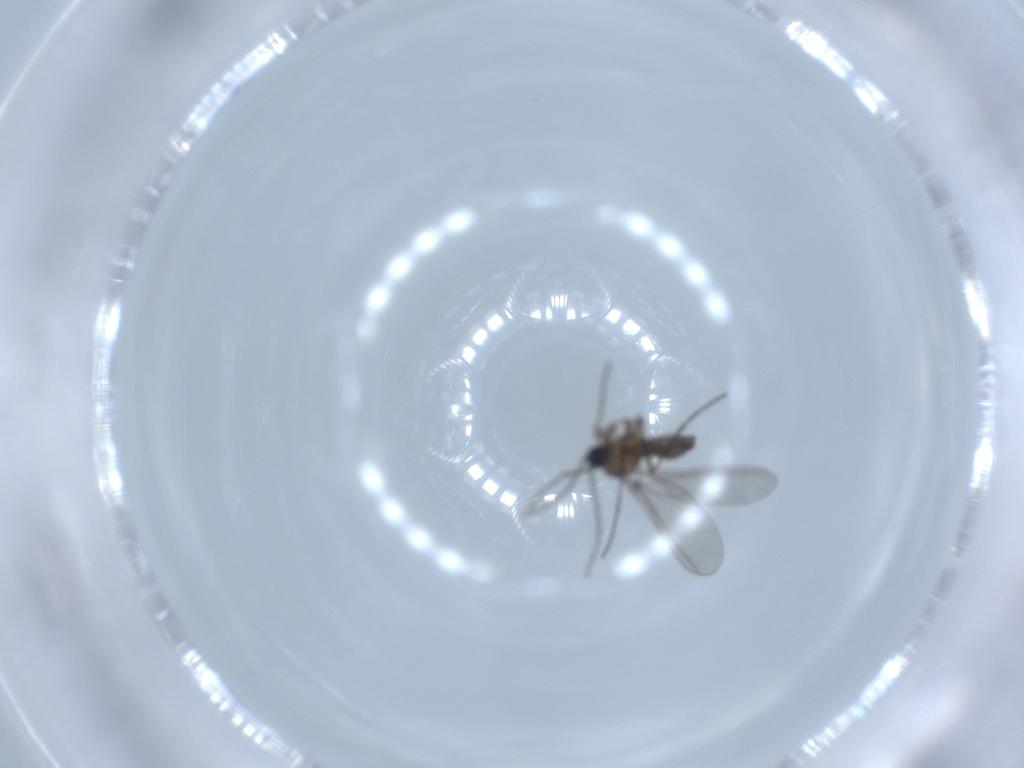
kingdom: Animalia
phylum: Arthropoda
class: Insecta
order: Diptera
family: Sciaridae
